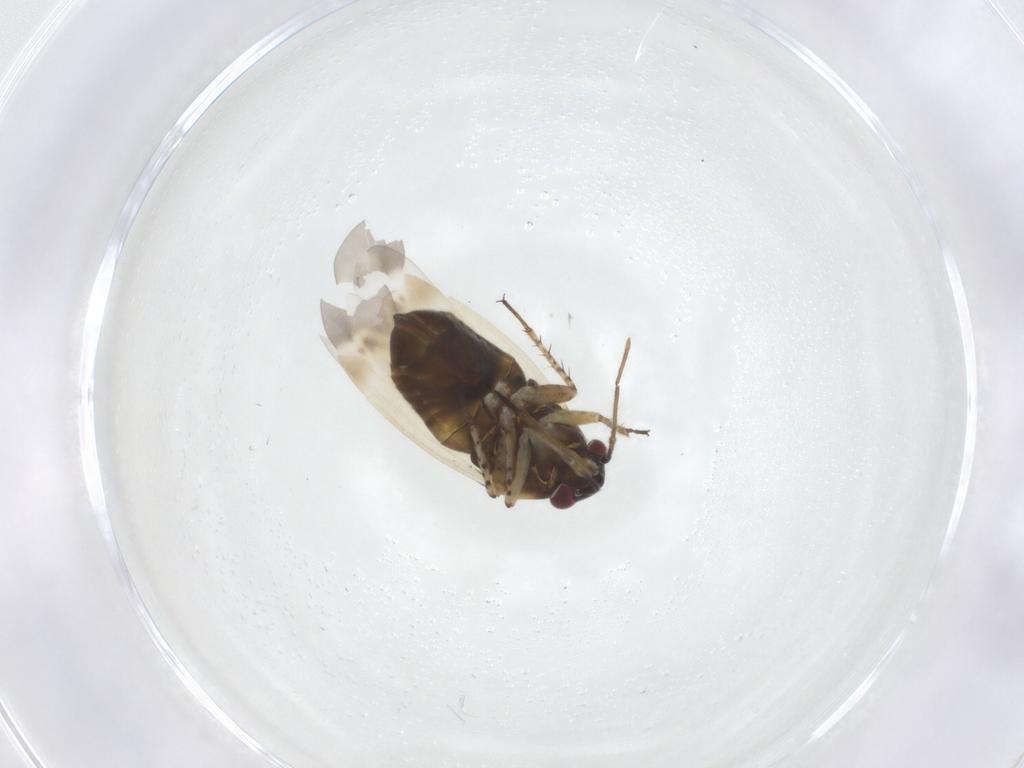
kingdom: Animalia
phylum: Arthropoda
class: Insecta
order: Hemiptera
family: Miridae
